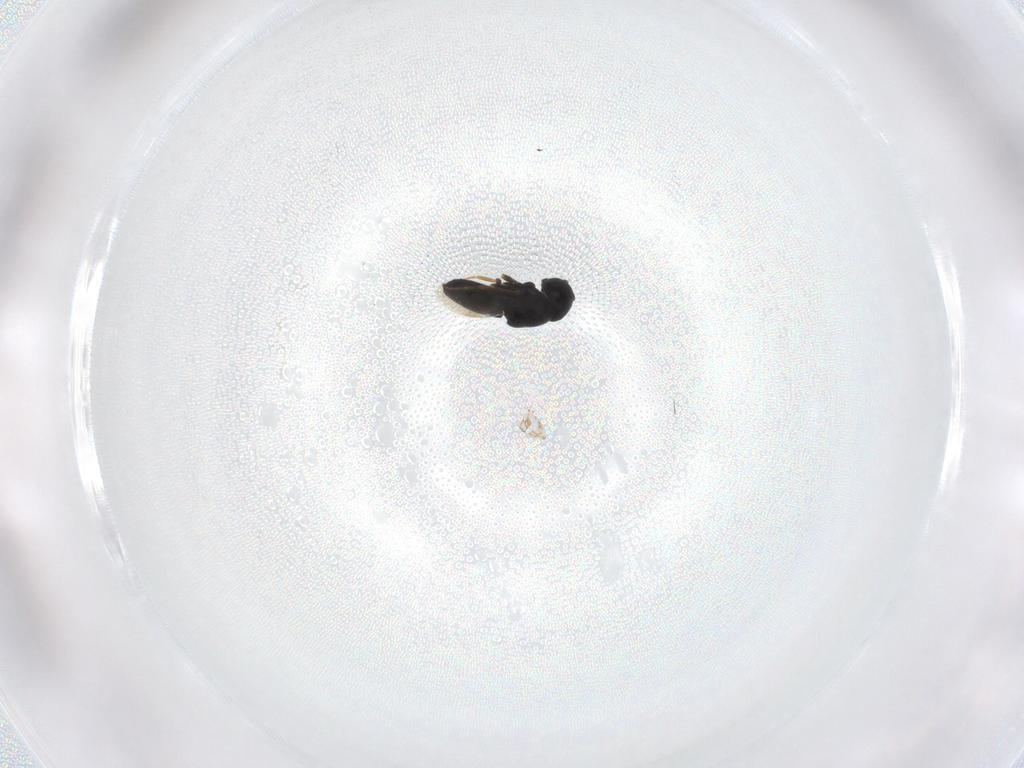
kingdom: Animalia
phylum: Arthropoda
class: Insecta
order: Hymenoptera
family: Scelionidae
